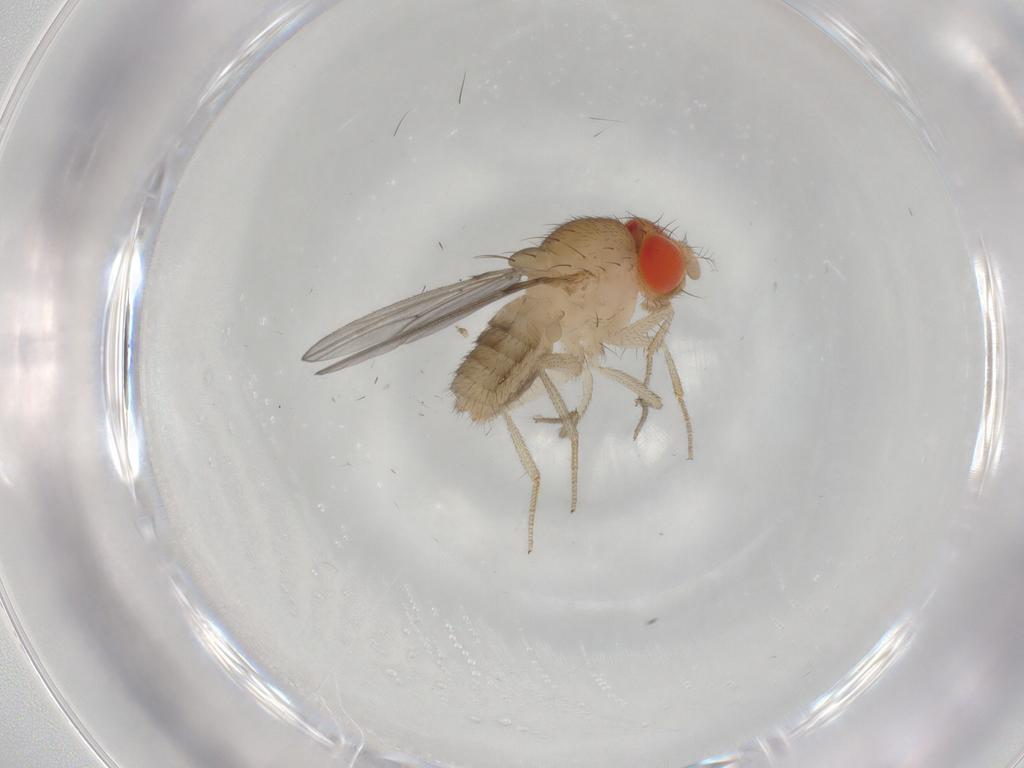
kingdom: Animalia
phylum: Arthropoda
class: Insecta
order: Diptera
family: Drosophilidae
